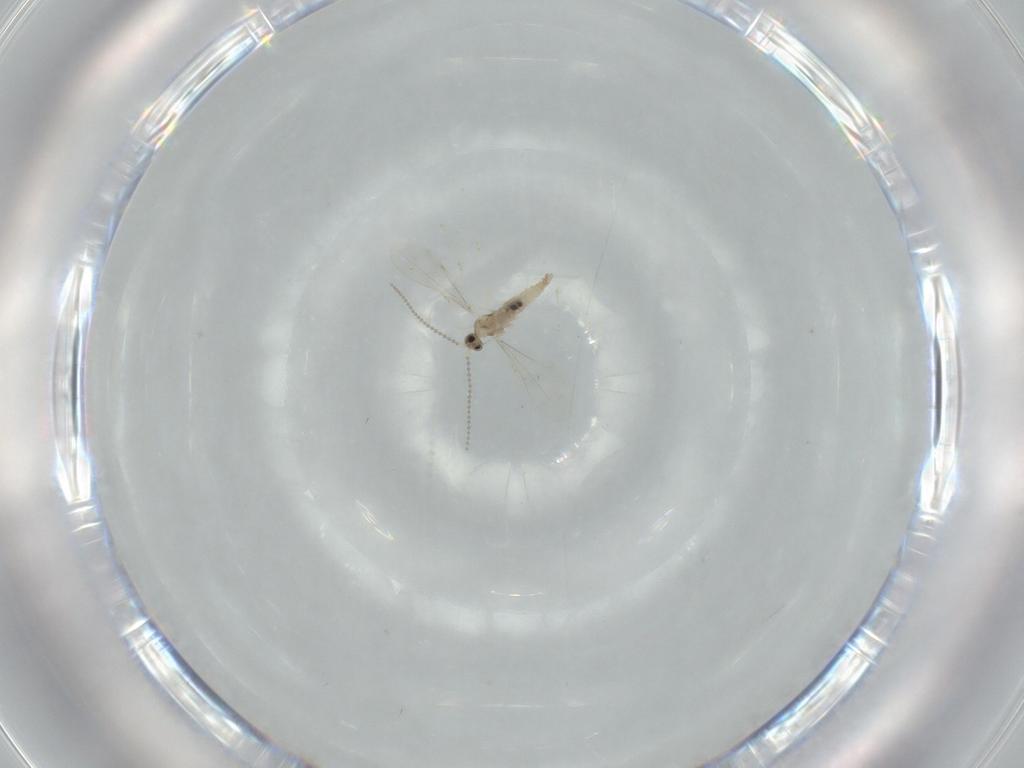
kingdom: Animalia
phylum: Arthropoda
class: Insecta
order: Diptera
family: Cecidomyiidae
